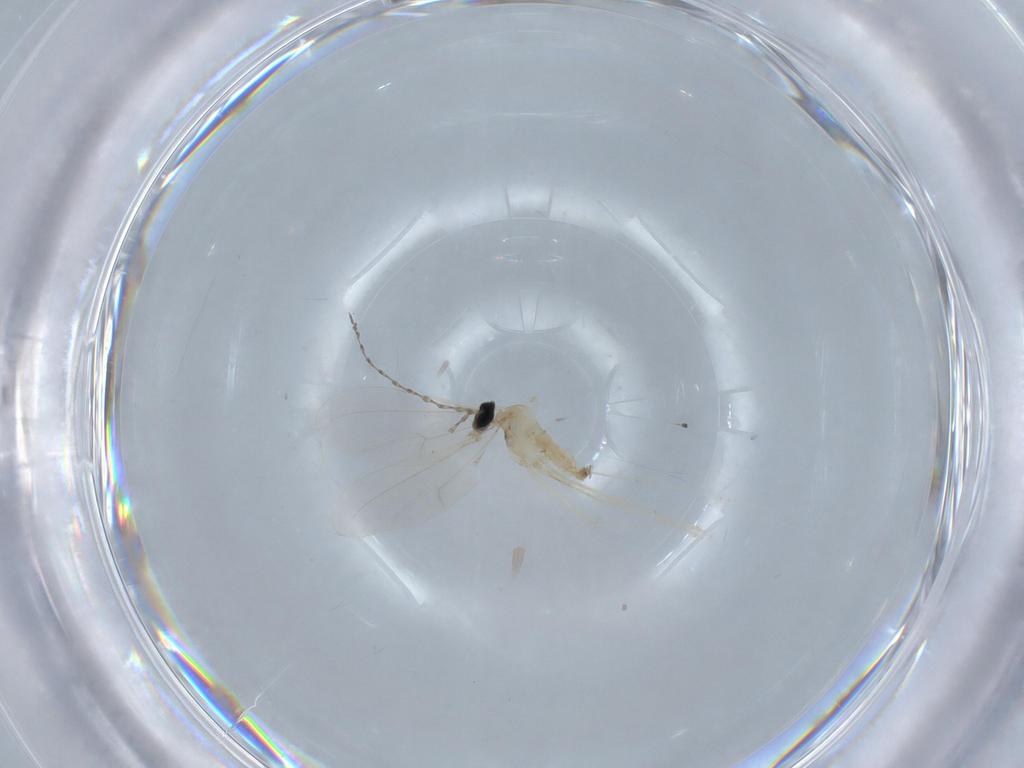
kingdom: Animalia
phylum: Arthropoda
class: Insecta
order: Diptera
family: Cecidomyiidae
